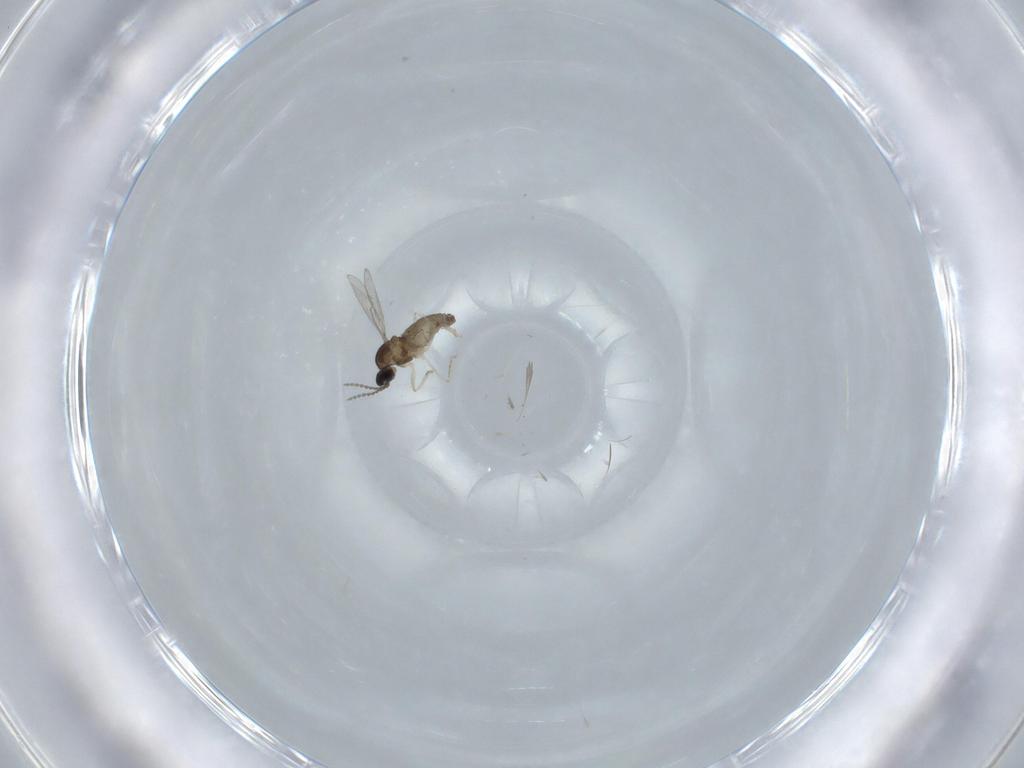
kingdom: Animalia
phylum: Arthropoda
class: Insecta
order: Diptera
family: Cecidomyiidae
